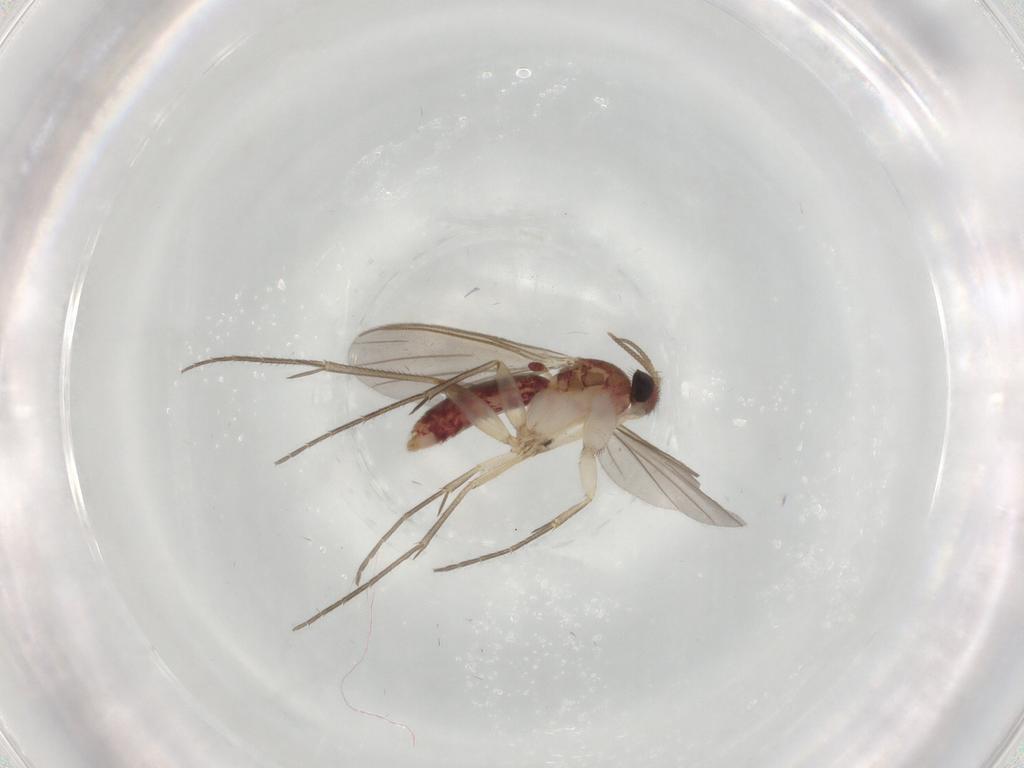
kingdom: Animalia
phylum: Arthropoda
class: Insecta
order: Diptera
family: Mycetophilidae
